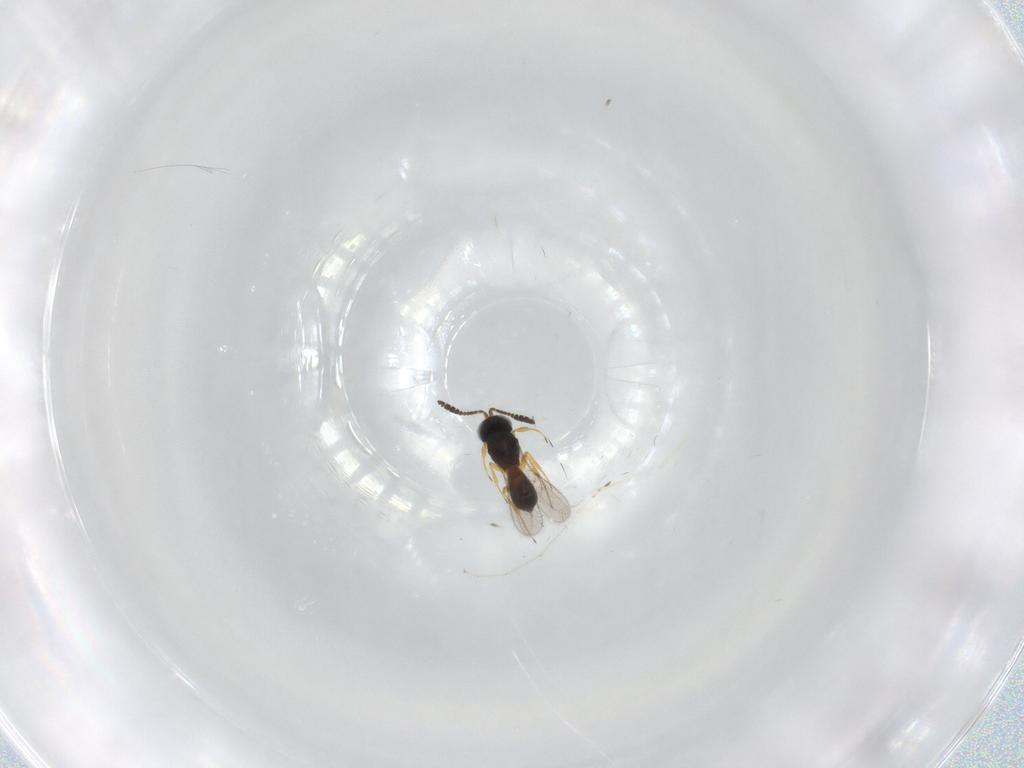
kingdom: Animalia
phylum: Arthropoda
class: Insecta
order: Hymenoptera
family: Scelionidae
